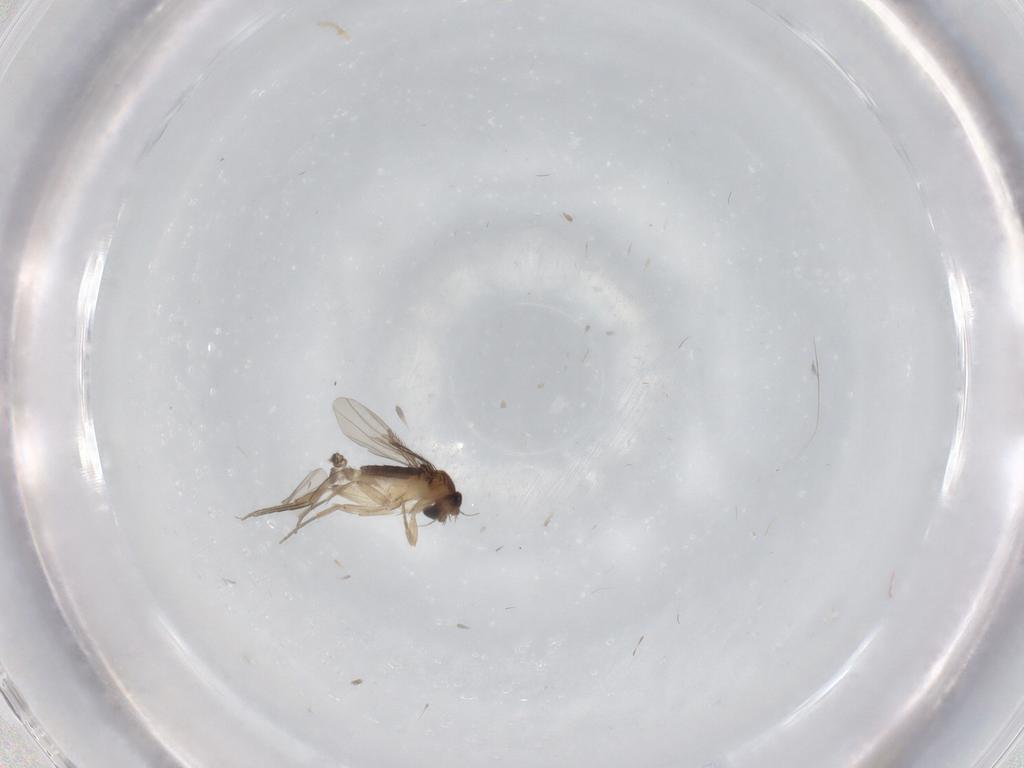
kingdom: Animalia
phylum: Arthropoda
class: Insecta
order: Diptera
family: Phoridae
